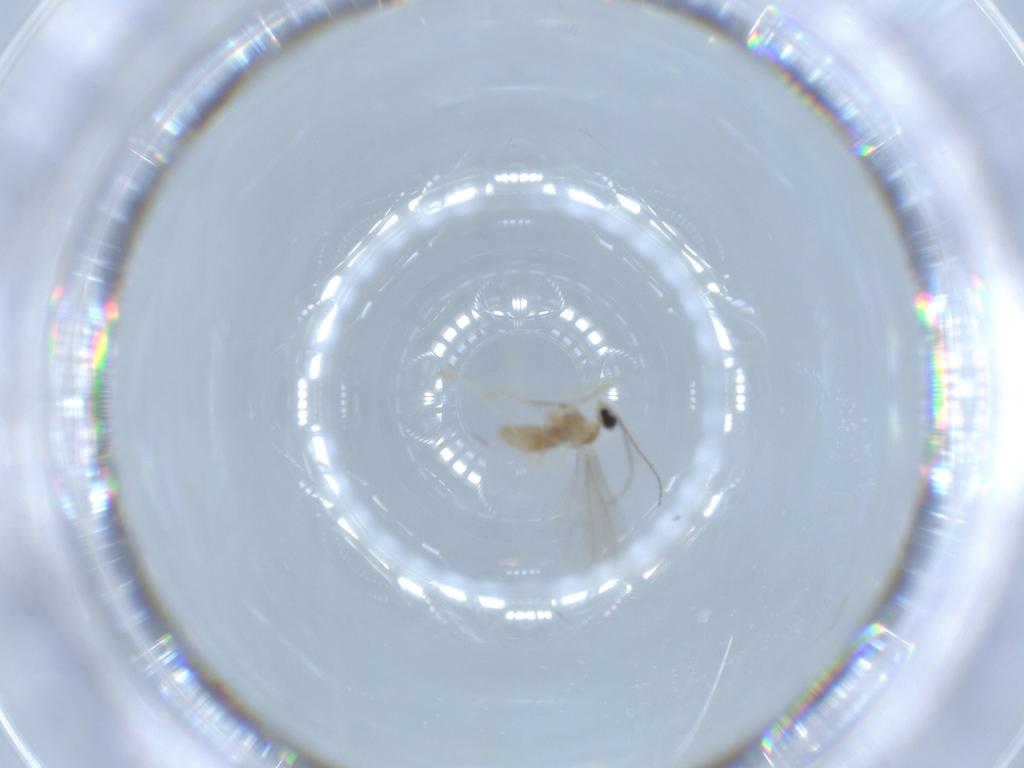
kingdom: Animalia
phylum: Arthropoda
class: Insecta
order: Diptera
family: Cecidomyiidae
